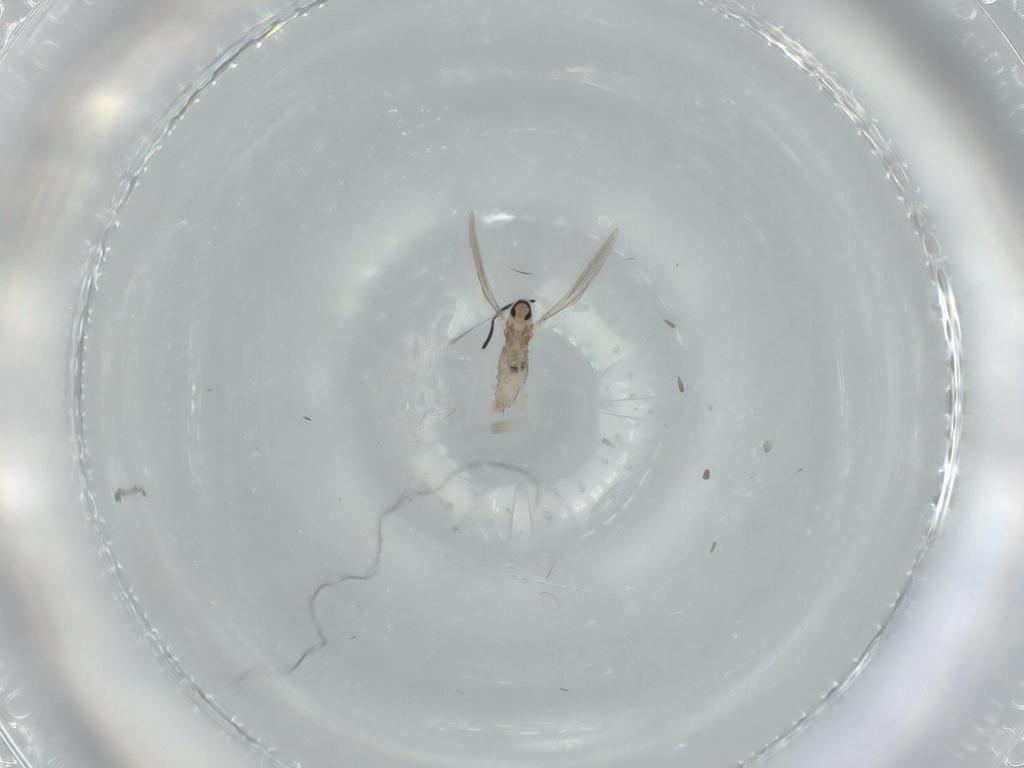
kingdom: Animalia
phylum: Arthropoda
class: Insecta
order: Diptera
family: Cecidomyiidae
